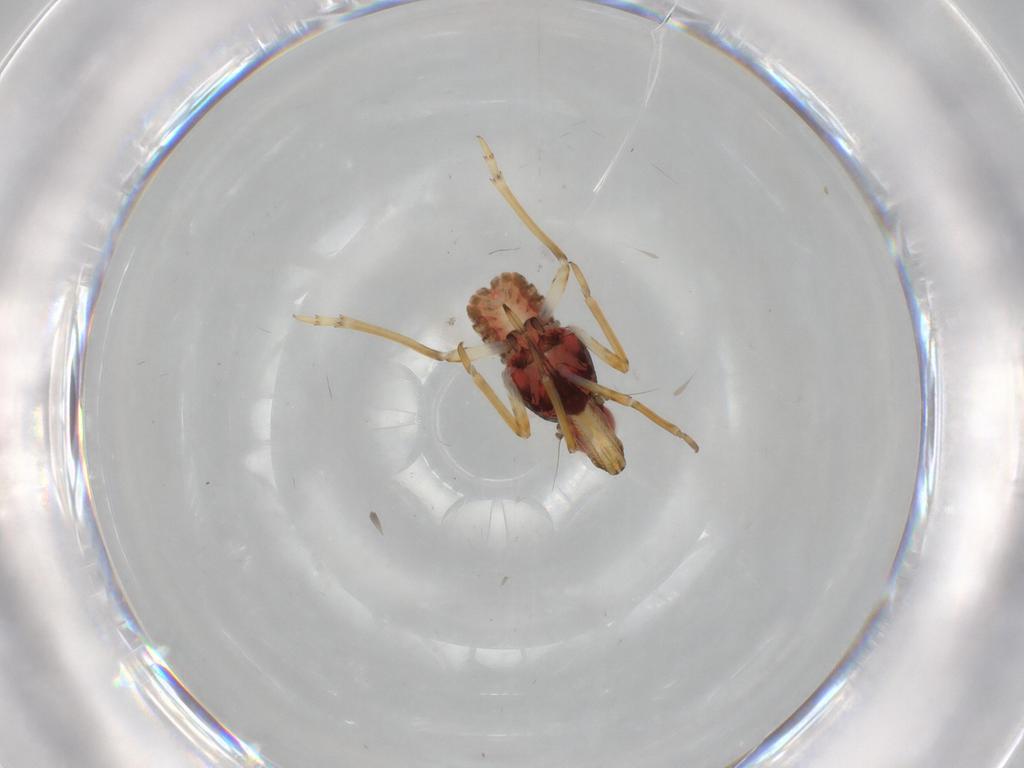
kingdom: Animalia
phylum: Arthropoda
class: Insecta
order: Hemiptera
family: Fulgoroidea_incertae_sedis
